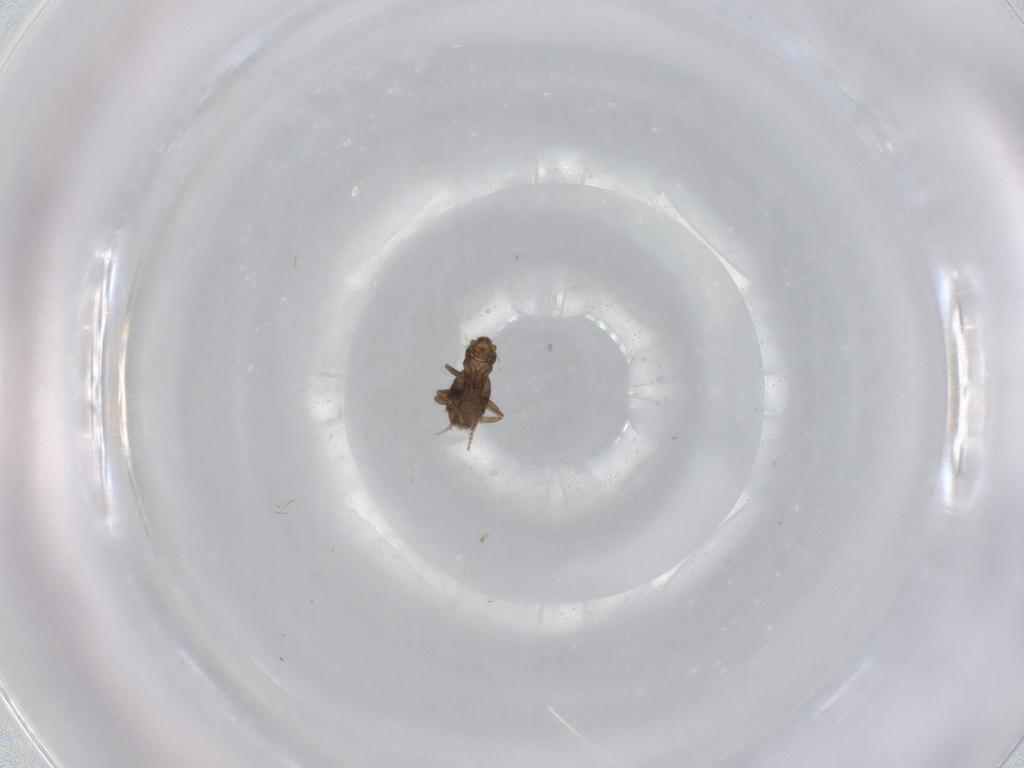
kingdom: Animalia
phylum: Arthropoda
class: Insecta
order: Diptera
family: Phoridae
